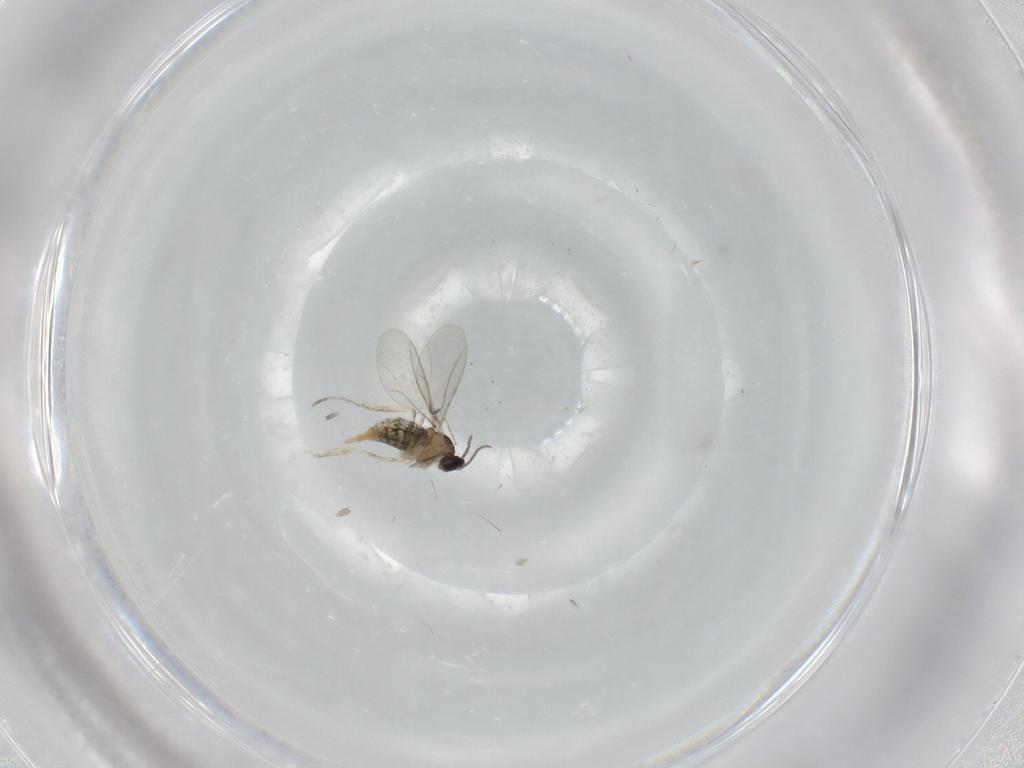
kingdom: Animalia
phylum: Arthropoda
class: Insecta
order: Diptera
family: Cecidomyiidae
